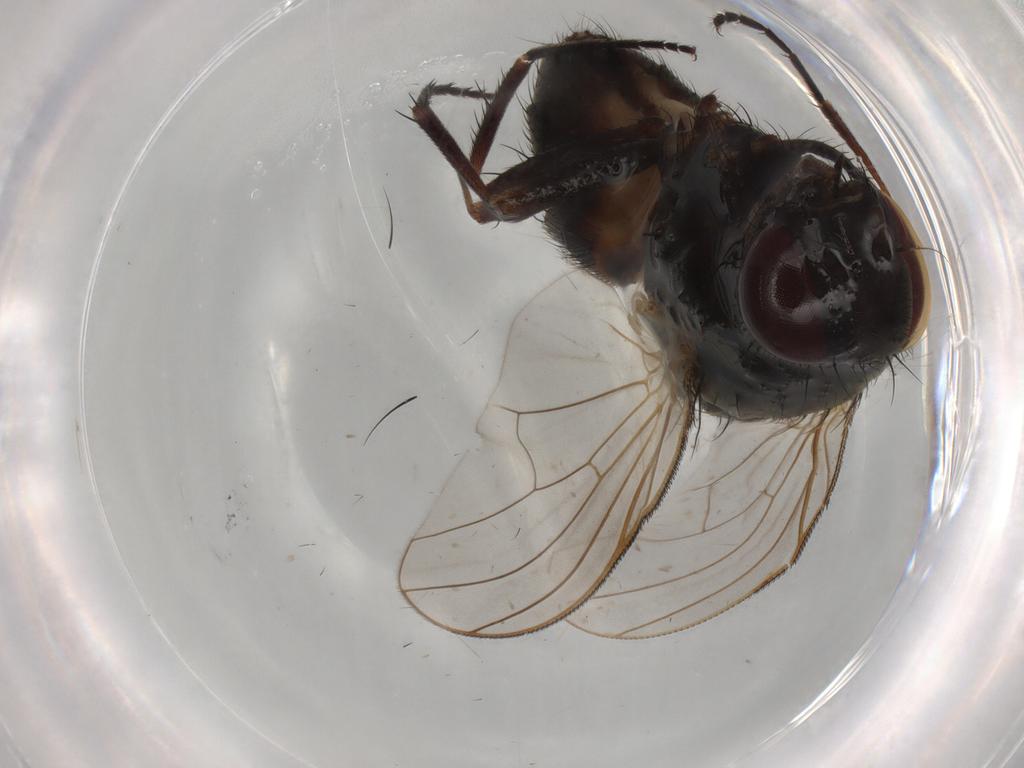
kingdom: Animalia
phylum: Arthropoda
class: Insecta
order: Diptera
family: Fannia
